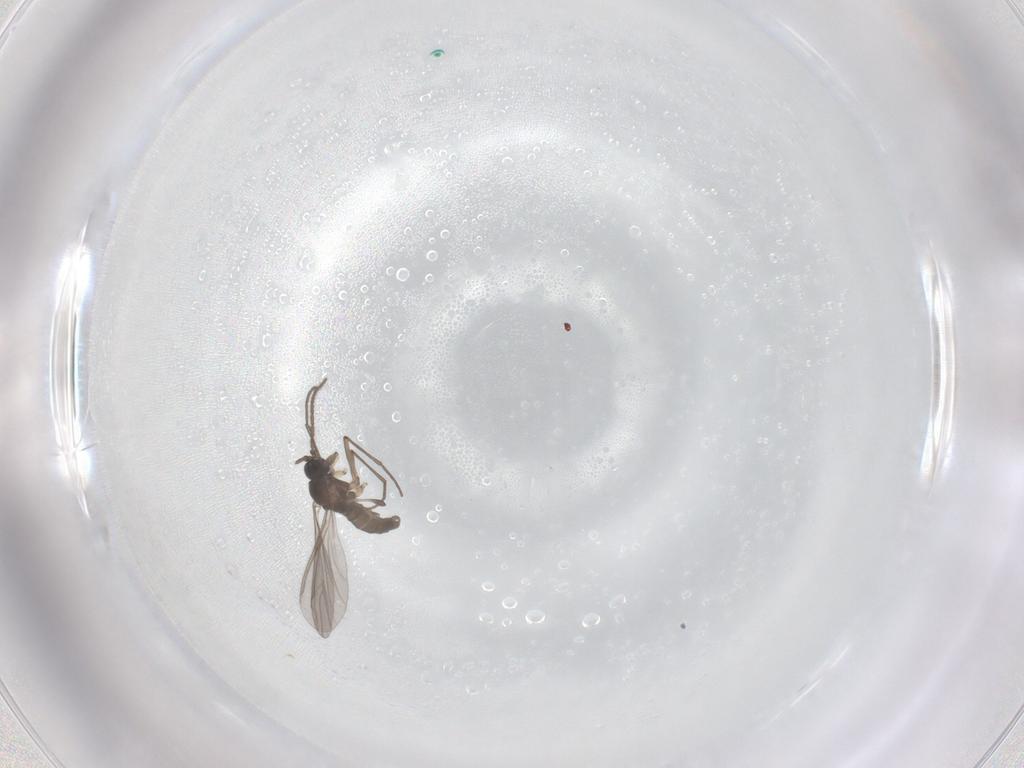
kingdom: Animalia
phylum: Arthropoda
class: Insecta
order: Diptera
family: Sciaridae
